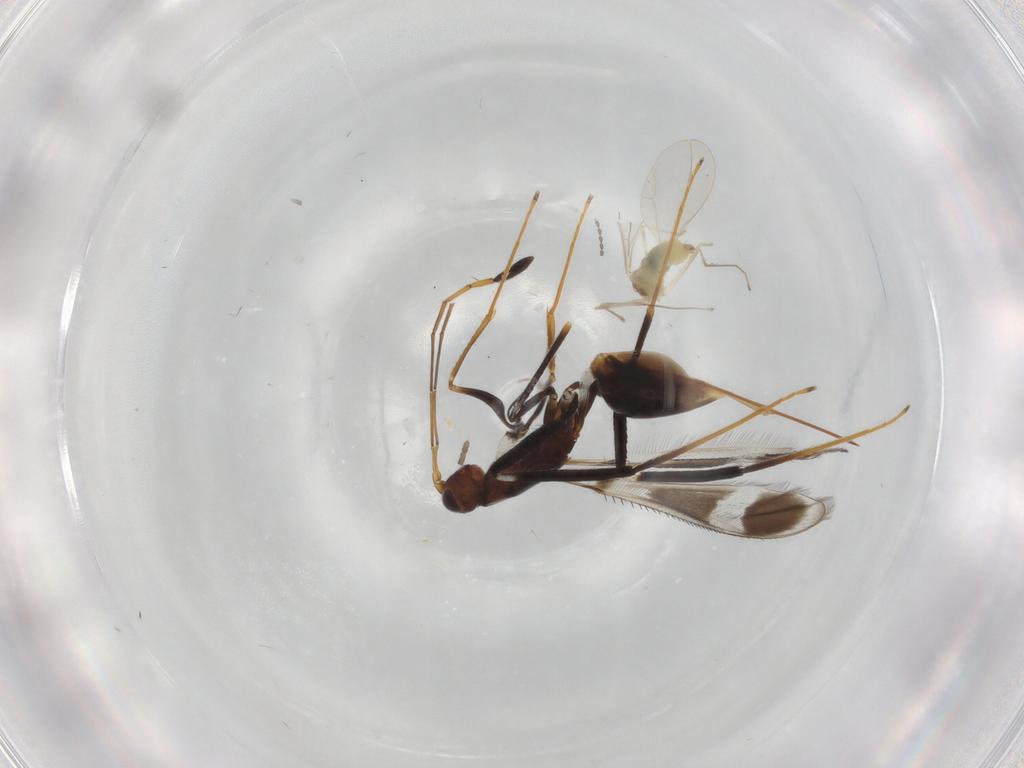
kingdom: Animalia
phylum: Arthropoda
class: Insecta
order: Diptera
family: Phoridae
